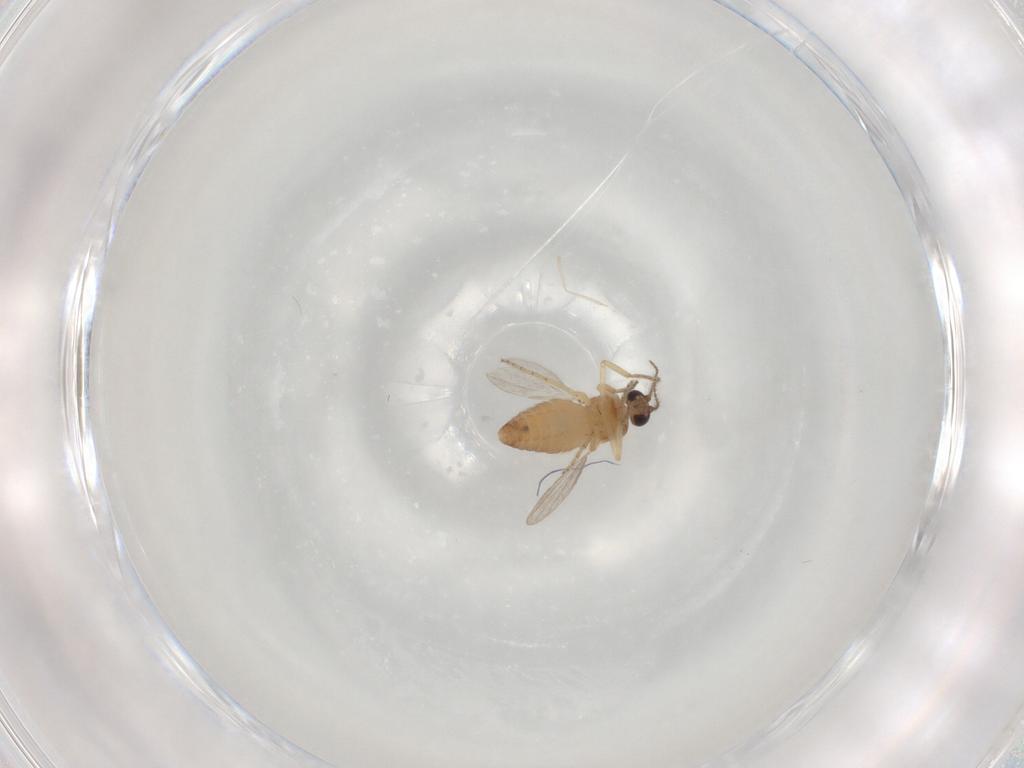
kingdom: Animalia
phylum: Arthropoda
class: Insecta
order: Diptera
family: Ceratopogonidae
